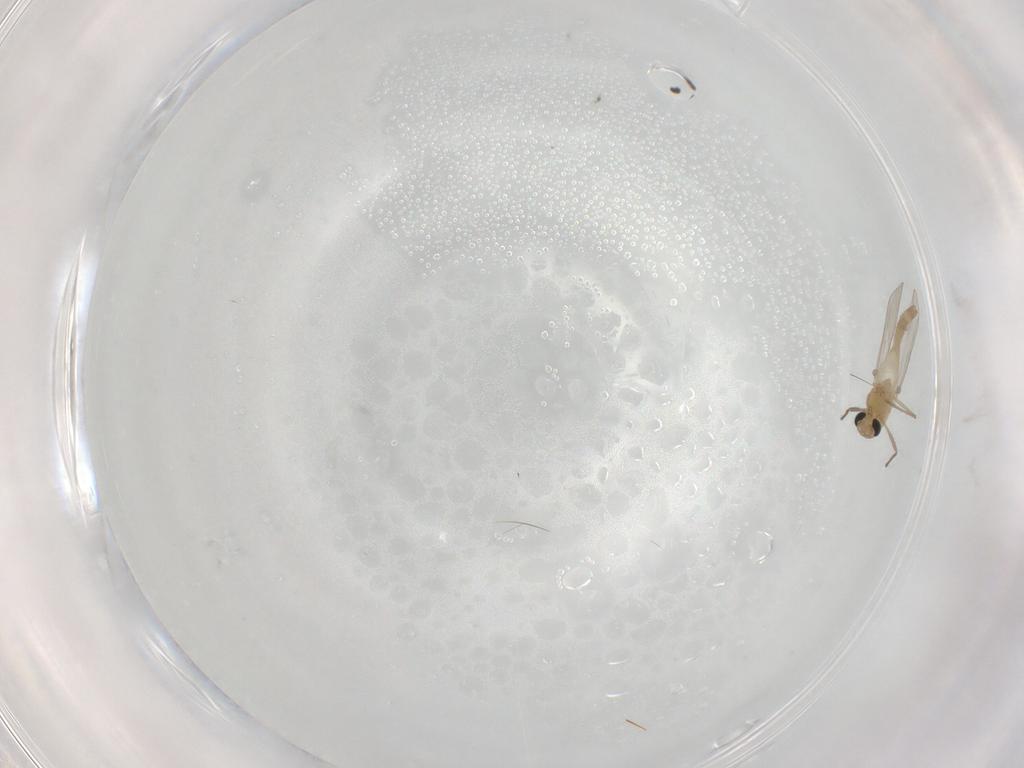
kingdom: Animalia
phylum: Arthropoda
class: Insecta
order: Diptera
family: Chironomidae
